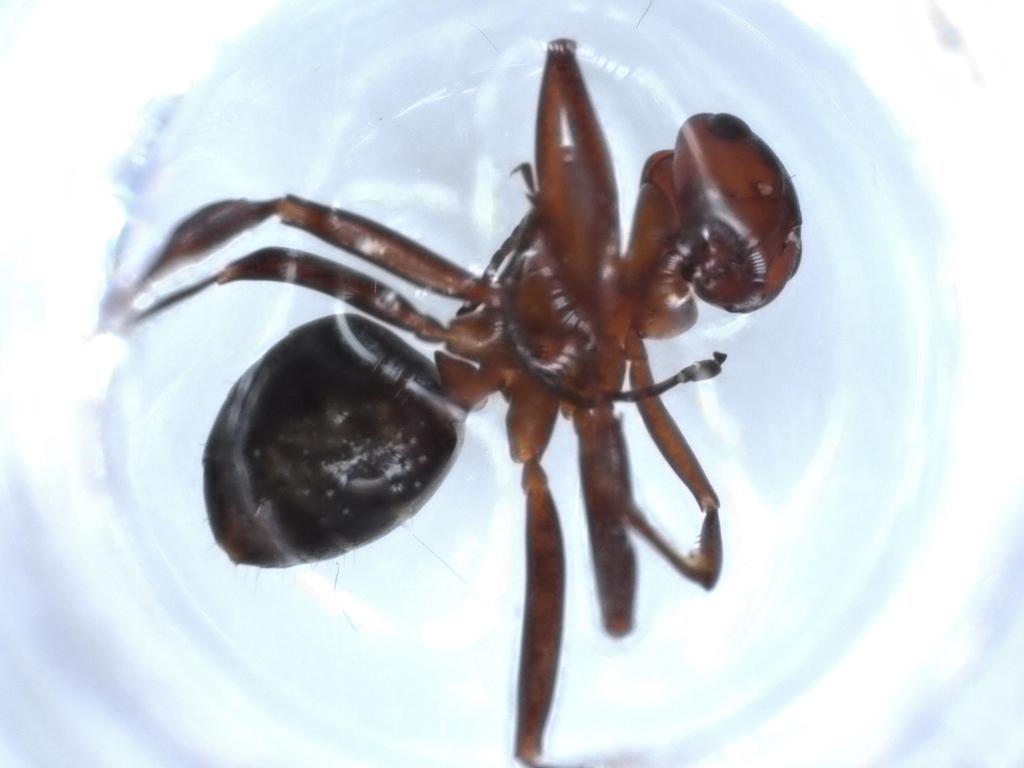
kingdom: Animalia
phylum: Arthropoda
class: Insecta
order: Hymenoptera
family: Formicidae
